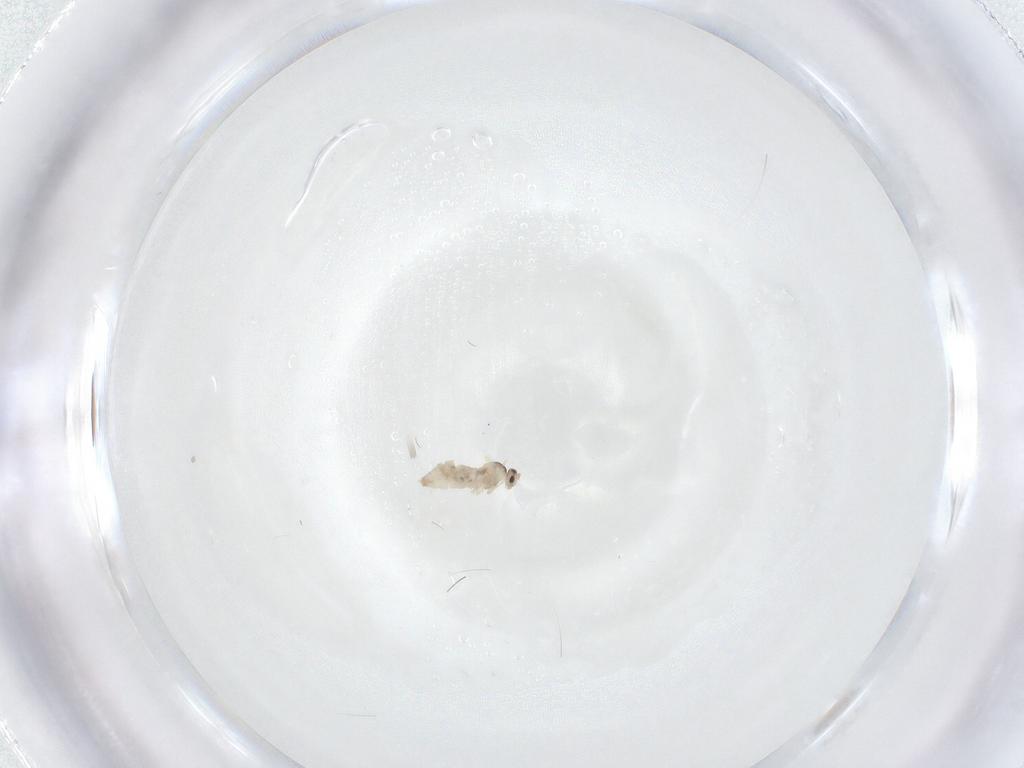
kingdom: Animalia
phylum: Arthropoda
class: Insecta
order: Diptera
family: Cecidomyiidae
